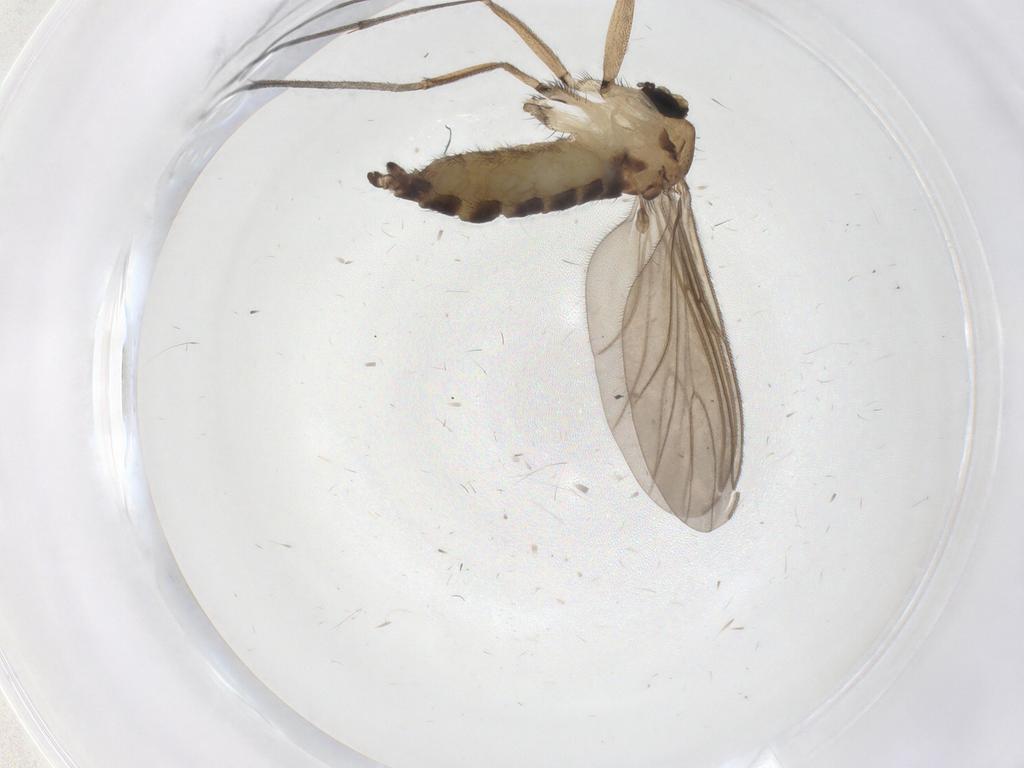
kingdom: Animalia
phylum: Arthropoda
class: Insecta
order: Diptera
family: Sciaridae
